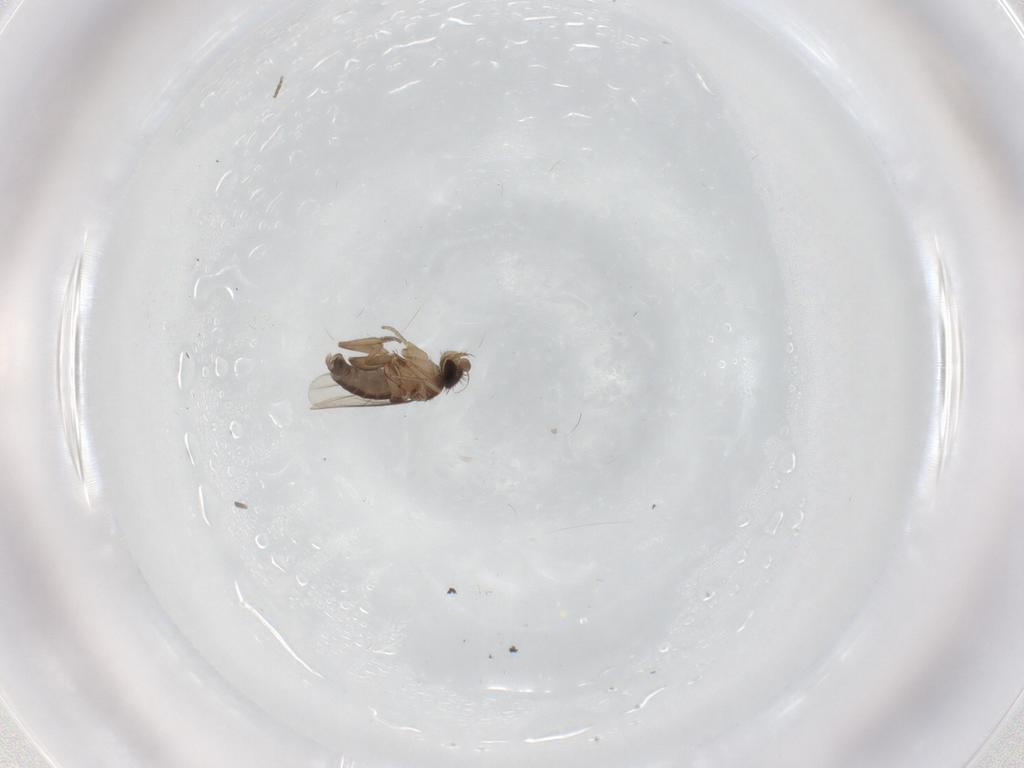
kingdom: Animalia
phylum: Arthropoda
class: Insecta
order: Diptera
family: Phoridae
